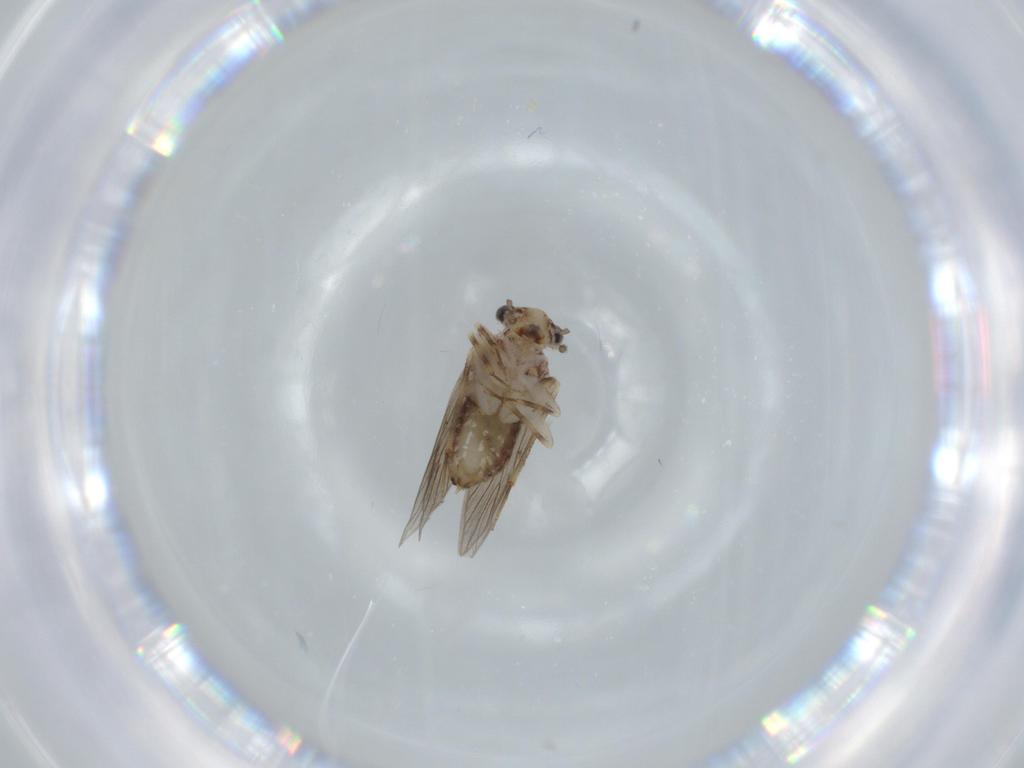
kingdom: Animalia
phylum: Arthropoda
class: Insecta
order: Psocodea
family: Lepidopsocidae
